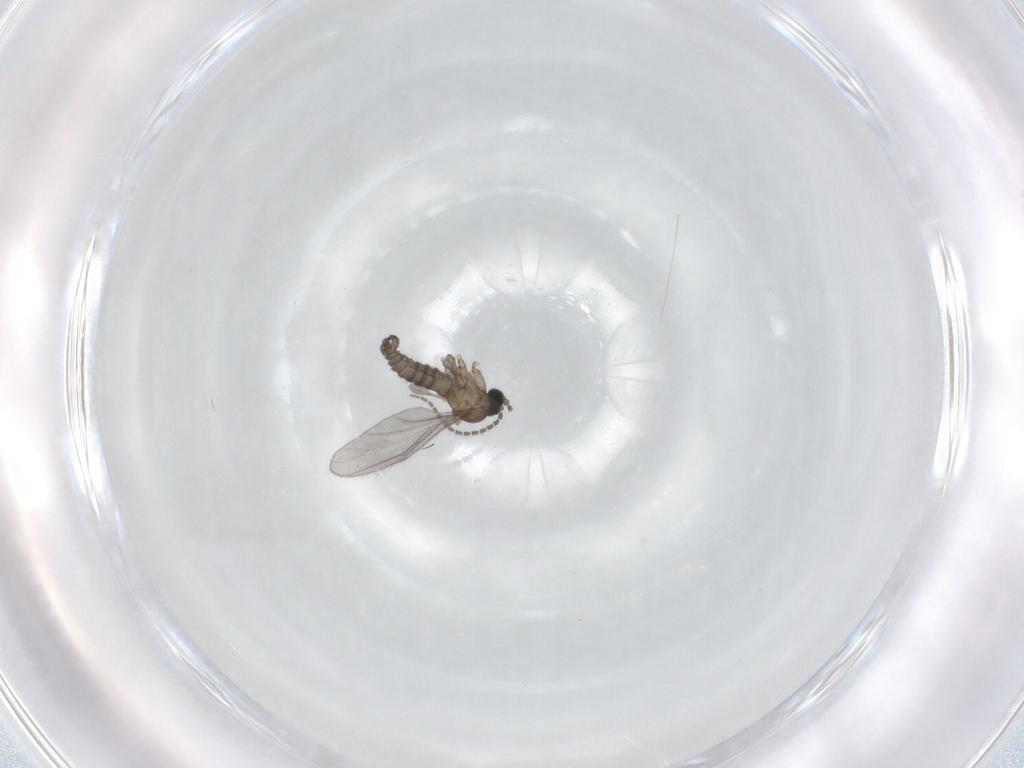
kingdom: Animalia
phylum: Arthropoda
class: Insecta
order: Diptera
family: Sciaridae
